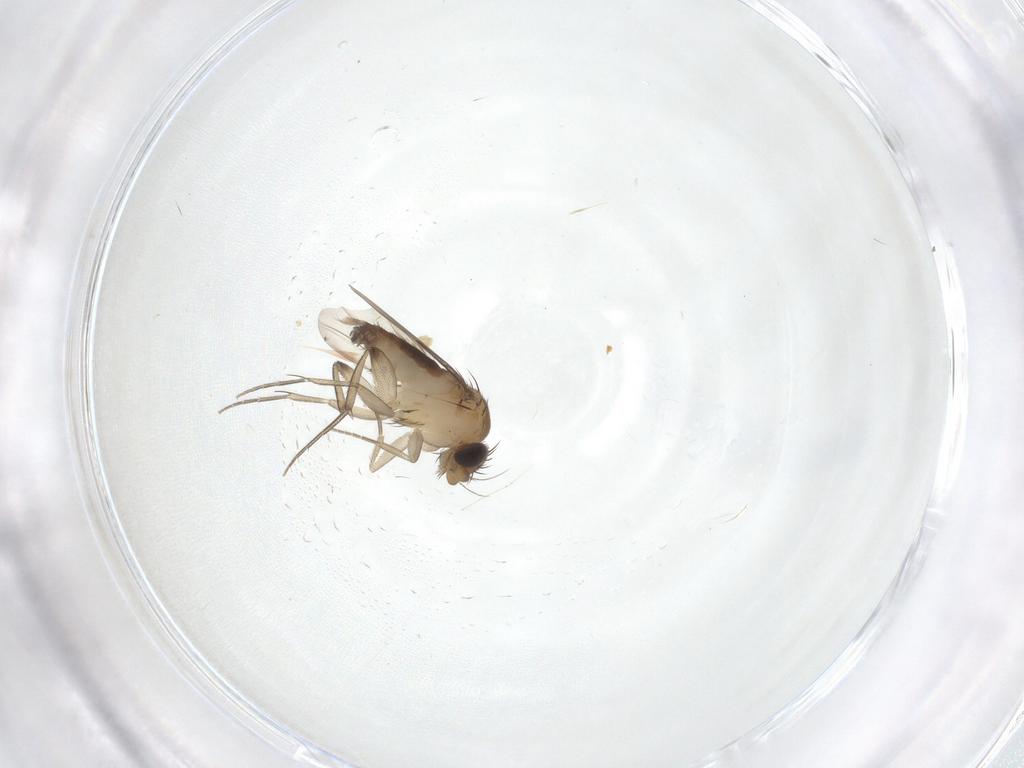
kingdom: Animalia
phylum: Arthropoda
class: Insecta
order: Diptera
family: Phoridae
